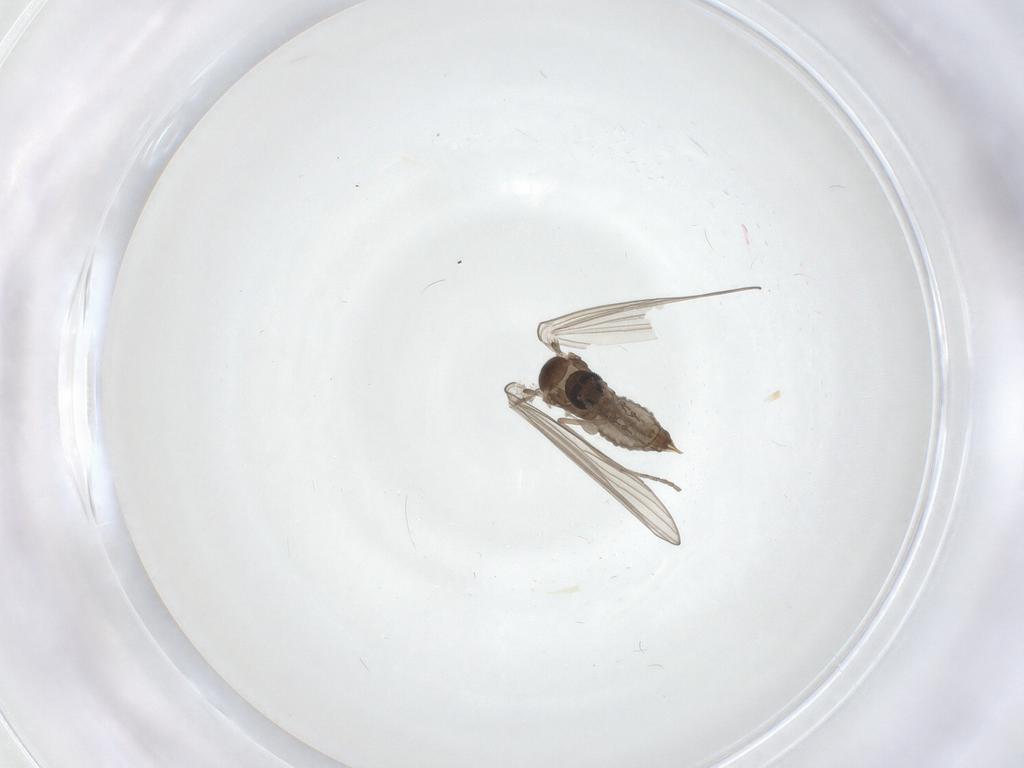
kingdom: Animalia
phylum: Arthropoda
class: Insecta
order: Diptera
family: Psychodidae
